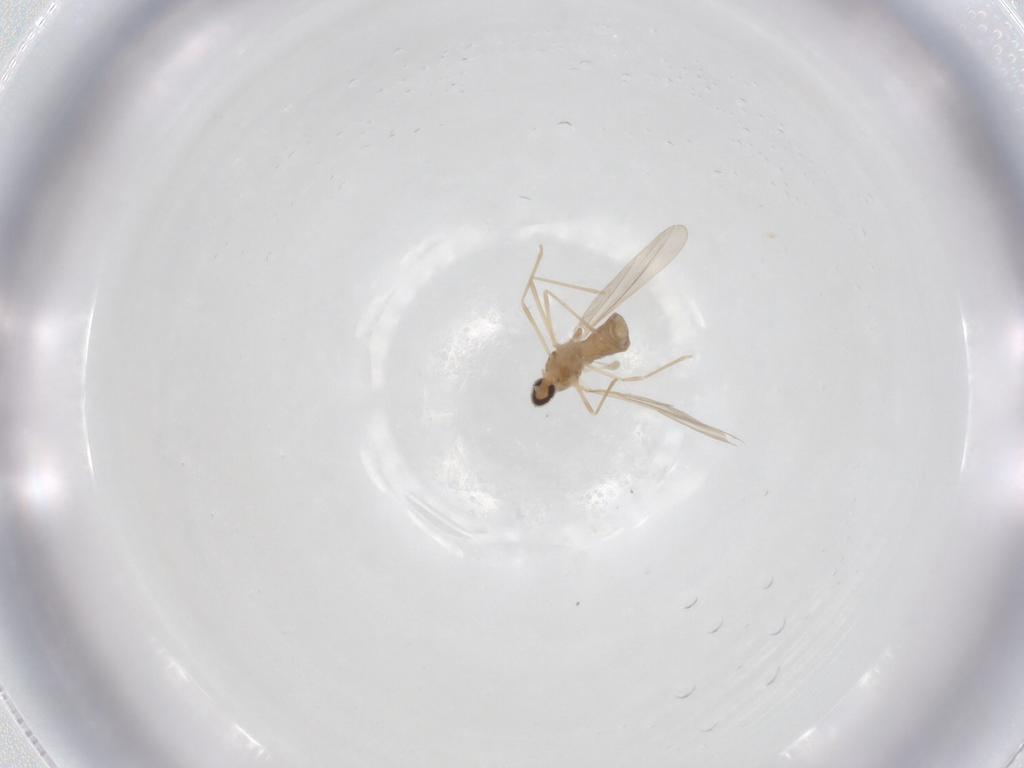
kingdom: Animalia
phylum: Arthropoda
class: Insecta
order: Diptera
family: Cecidomyiidae
